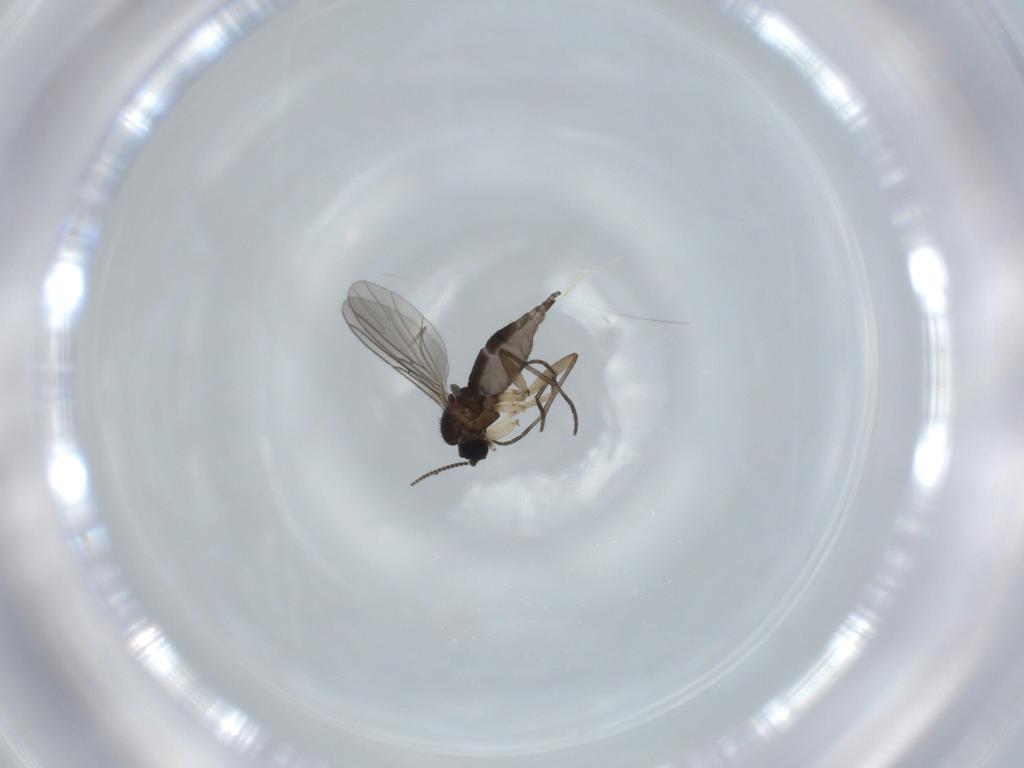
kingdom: Animalia
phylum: Arthropoda
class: Insecta
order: Diptera
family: Sciaridae
